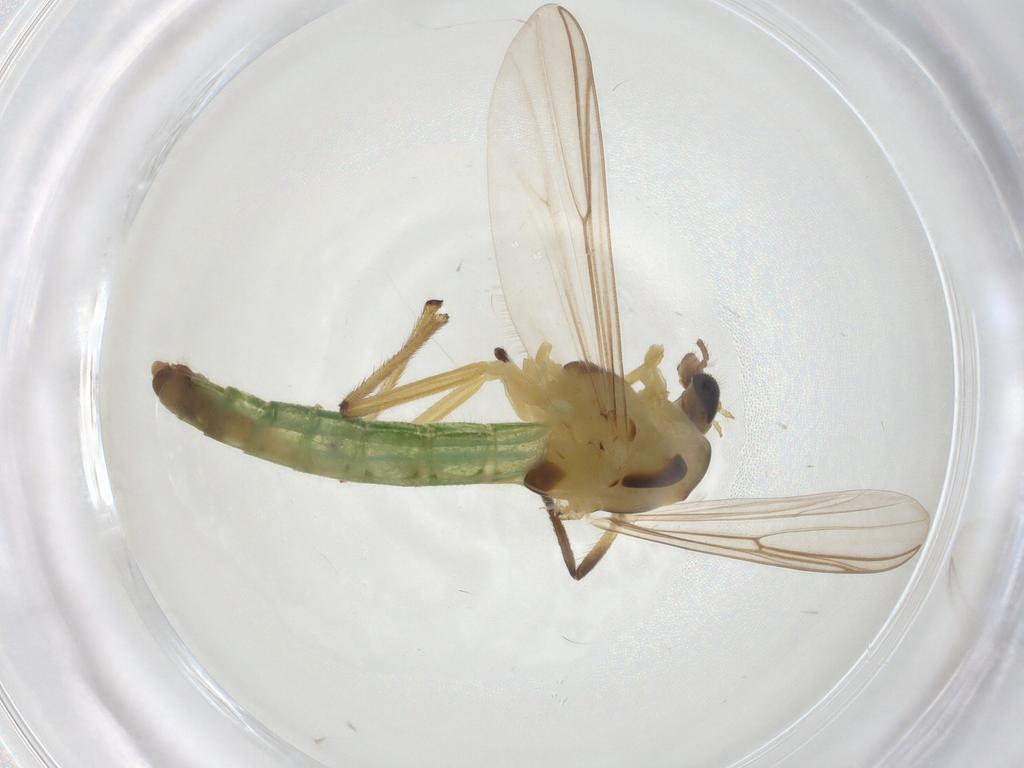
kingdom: Animalia
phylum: Arthropoda
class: Insecta
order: Diptera
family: Chironomidae
